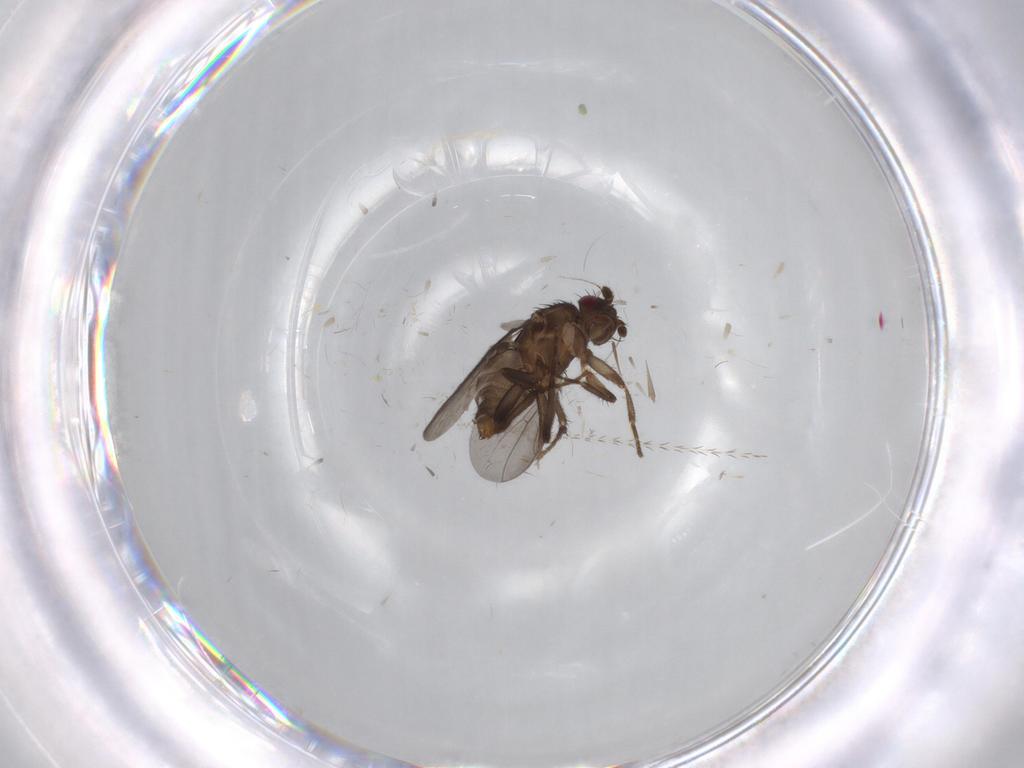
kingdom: Animalia
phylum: Arthropoda
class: Insecta
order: Diptera
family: Sphaeroceridae
